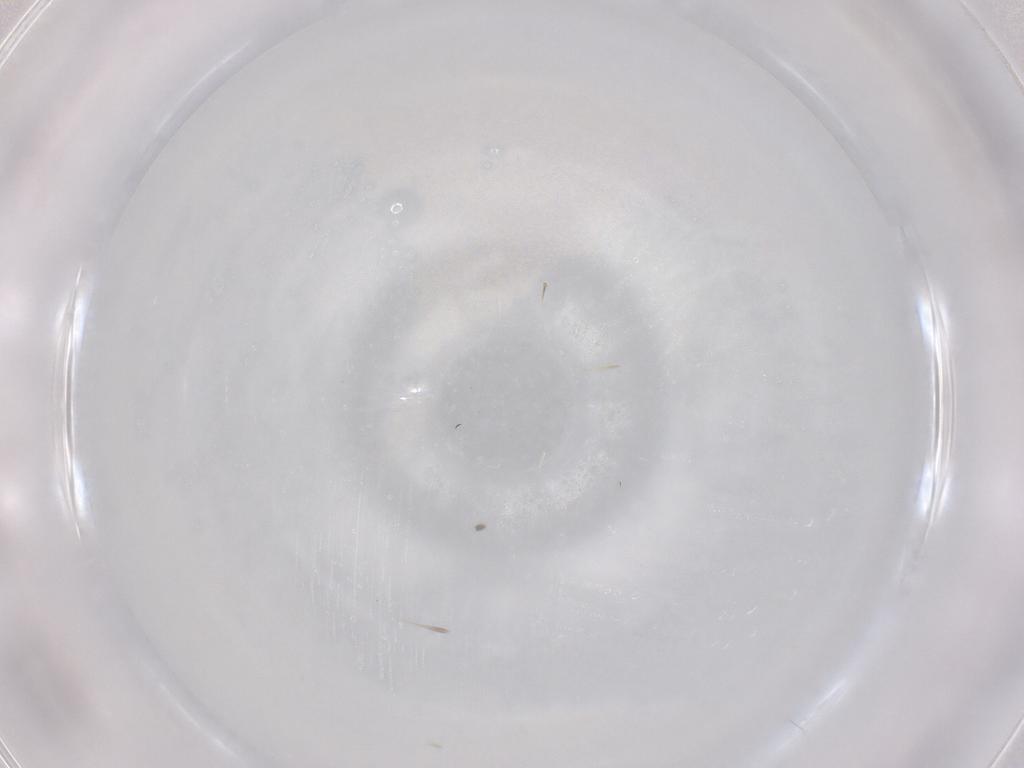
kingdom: Animalia
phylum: Arthropoda
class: Insecta
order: Diptera
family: Cecidomyiidae
